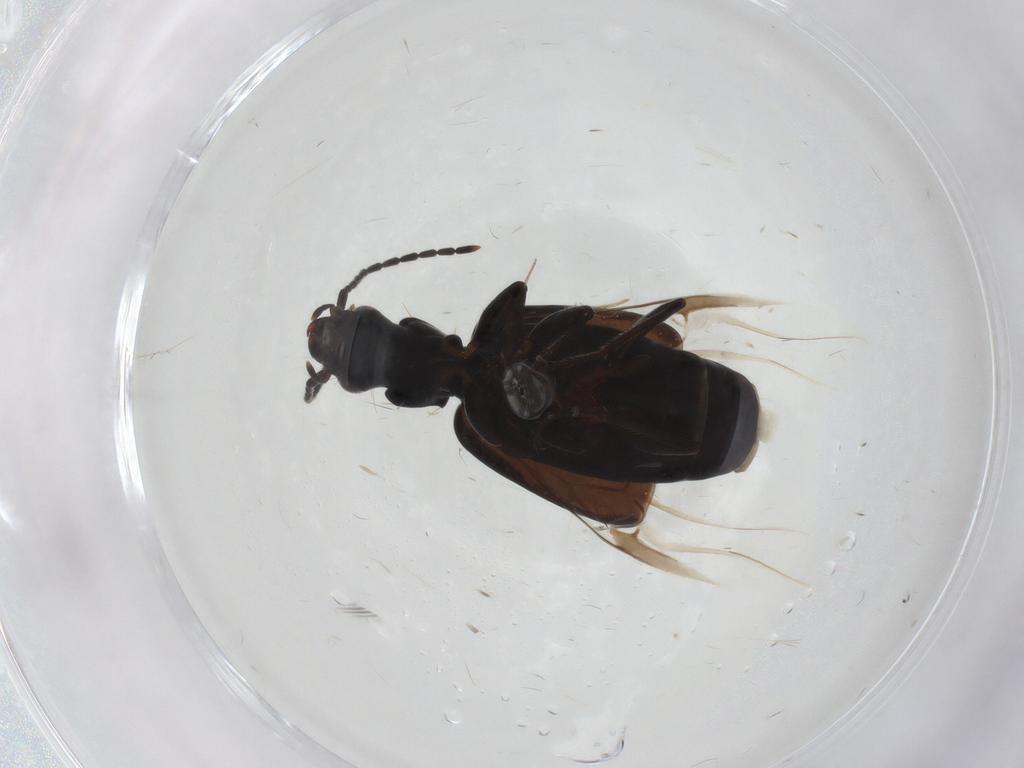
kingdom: Animalia
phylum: Arthropoda
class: Insecta
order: Coleoptera
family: Carabidae
